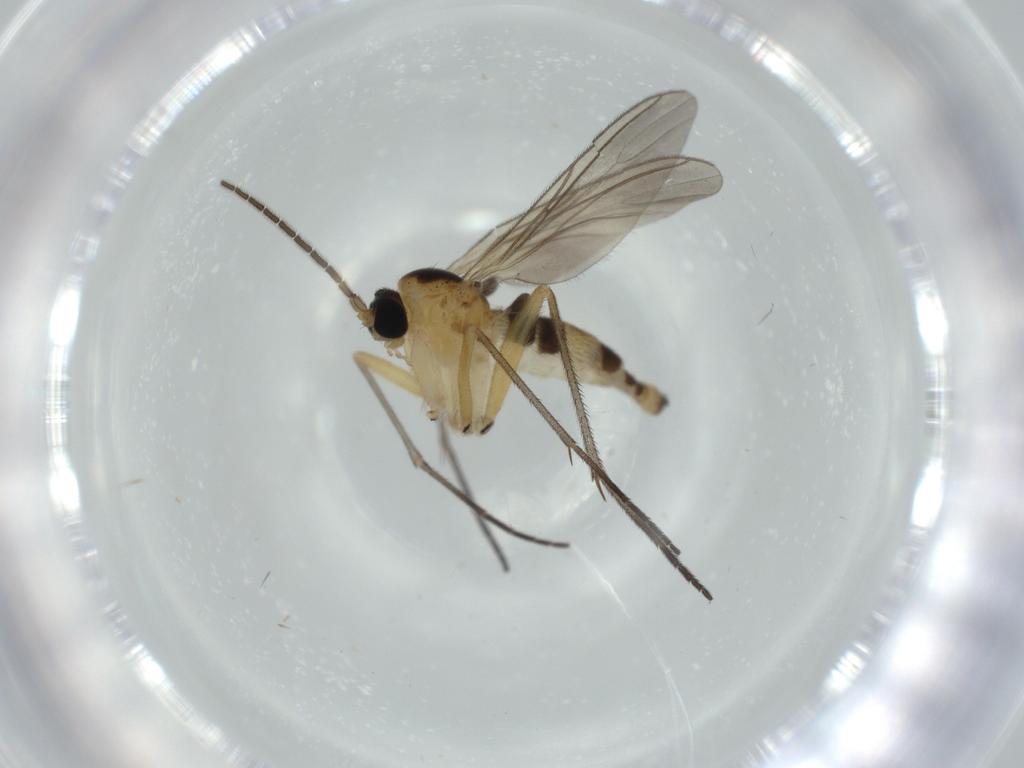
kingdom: Animalia
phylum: Arthropoda
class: Insecta
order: Diptera
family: Sciaridae
